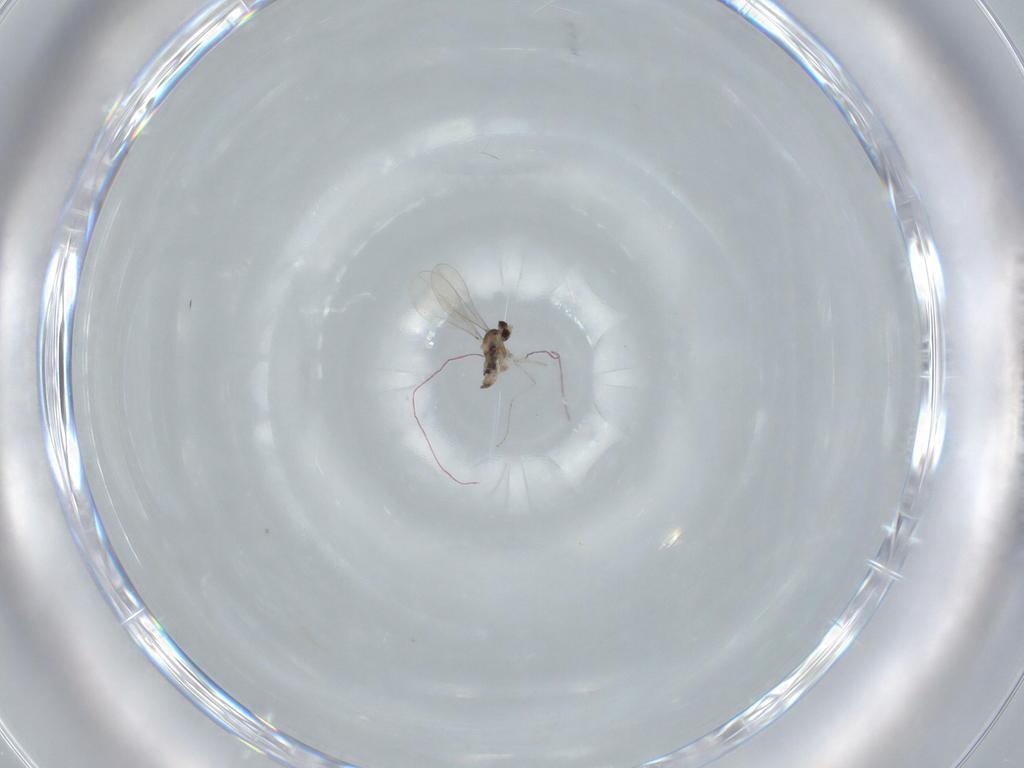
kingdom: Animalia
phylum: Arthropoda
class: Insecta
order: Diptera
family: Cecidomyiidae
